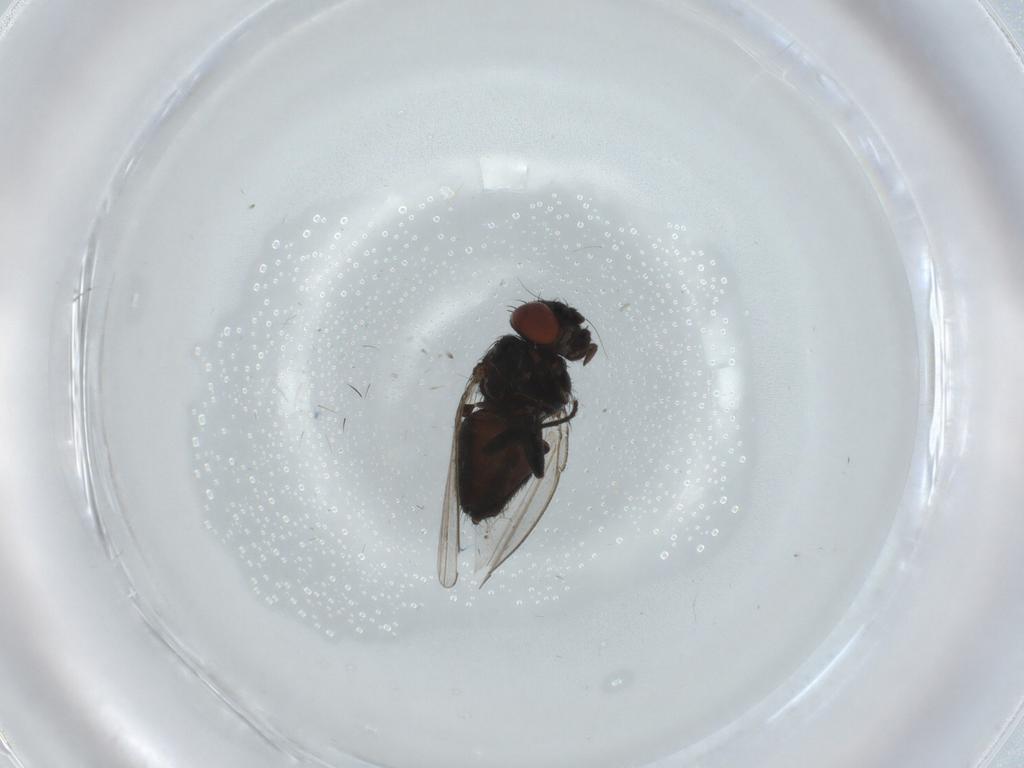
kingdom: Animalia
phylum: Arthropoda
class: Insecta
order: Diptera
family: Milichiidae
